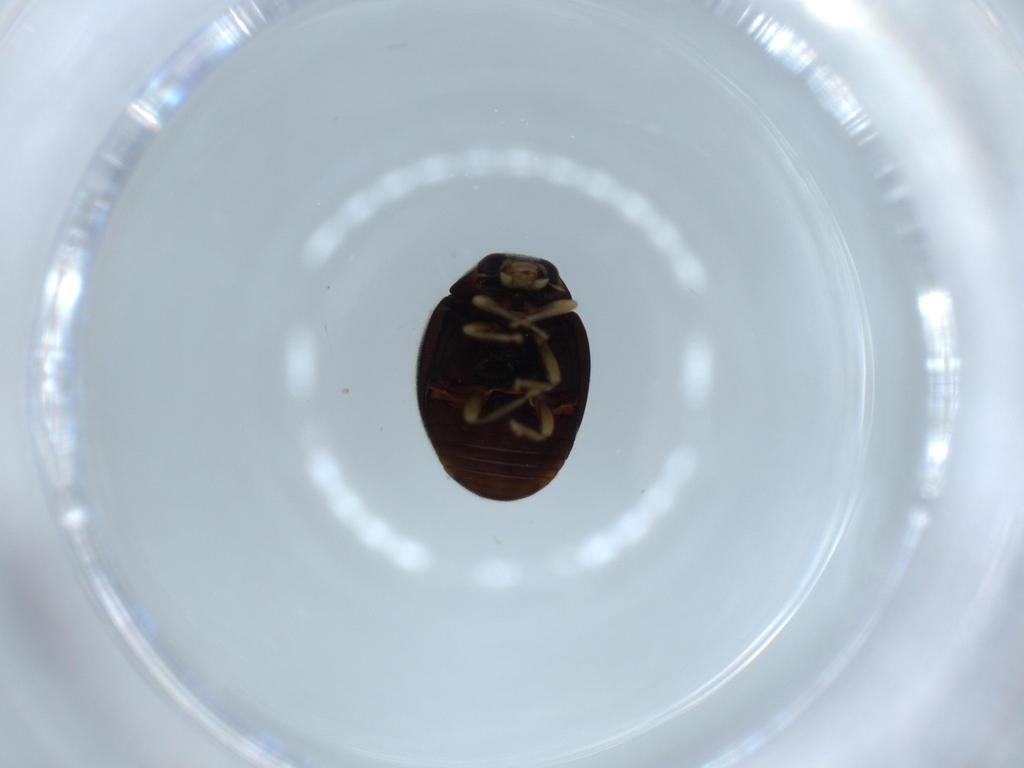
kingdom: Animalia
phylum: Arthropoda
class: Insecta
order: Coleoptera
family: Coccinellidae
